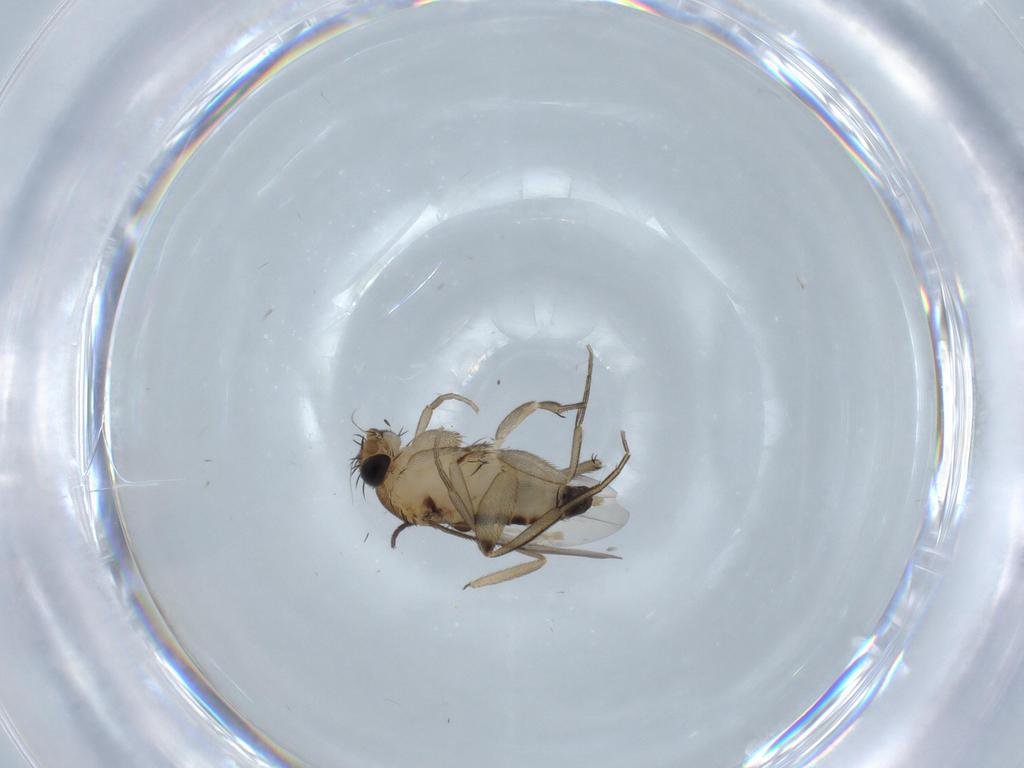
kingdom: Animalia
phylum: Arthropoda
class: Insecta
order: Diptera
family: Phoridae
